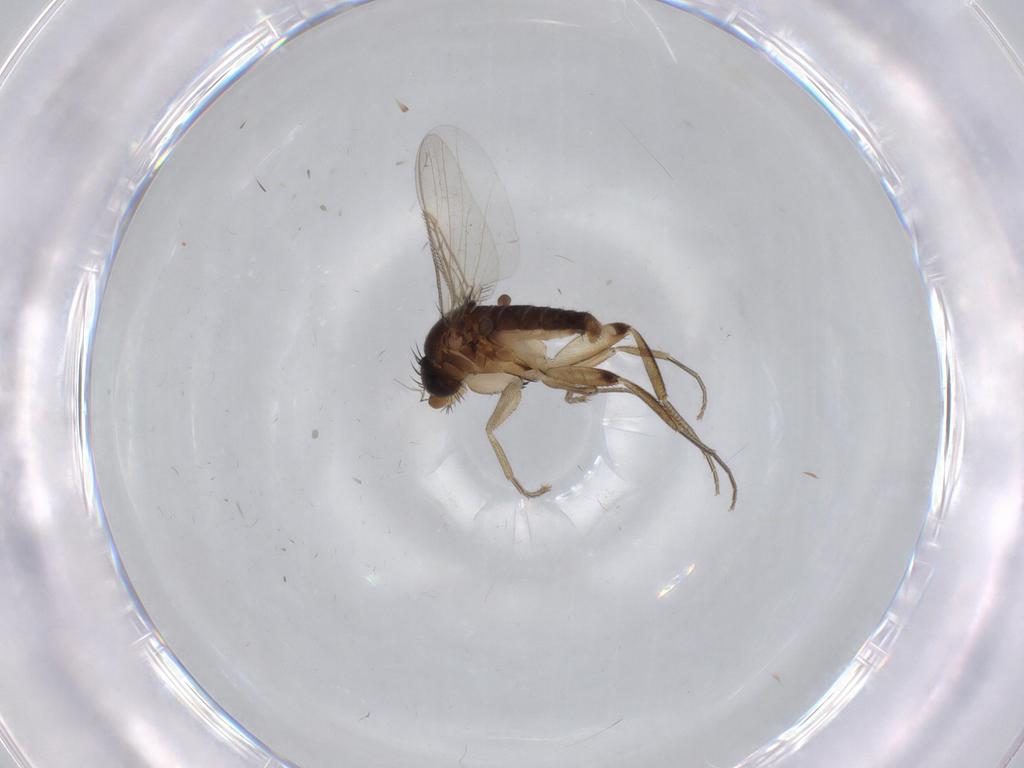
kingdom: Animalia
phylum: Arthropoda
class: Insecta
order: Diptera
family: Phoridae
